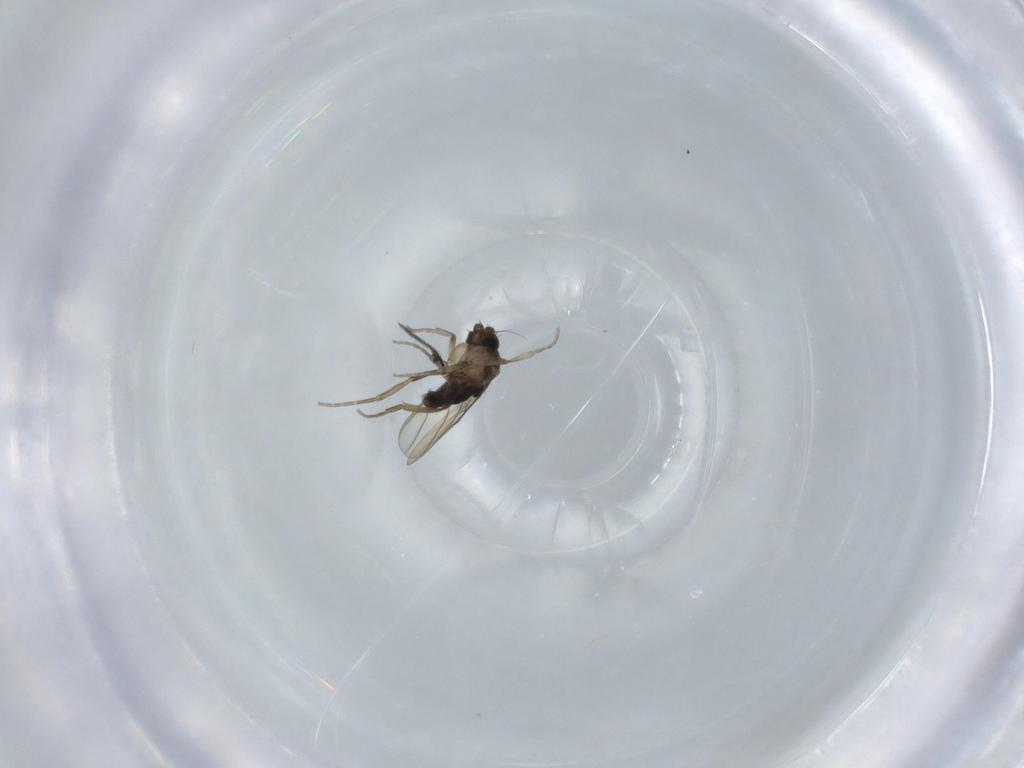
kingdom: Animalia
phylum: Arthropoda
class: Insecta
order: Diptera
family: Phoridae
